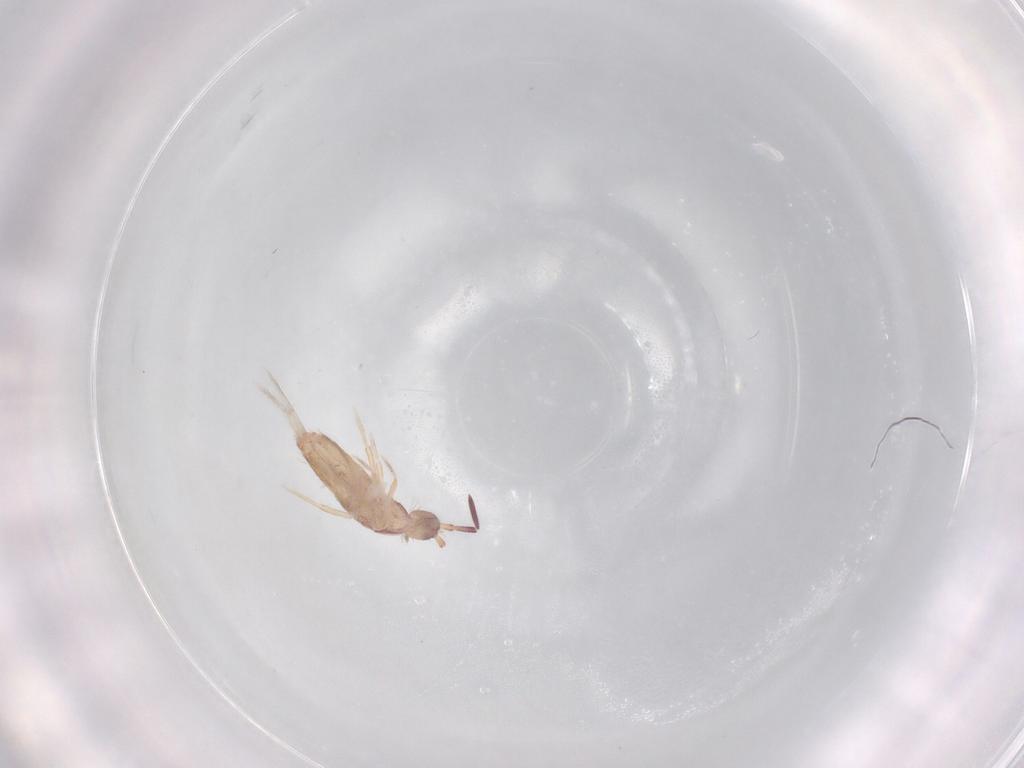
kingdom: Animalia
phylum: Arthropoda
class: Collembola
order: Poduromorpha
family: Hypogastruridae
